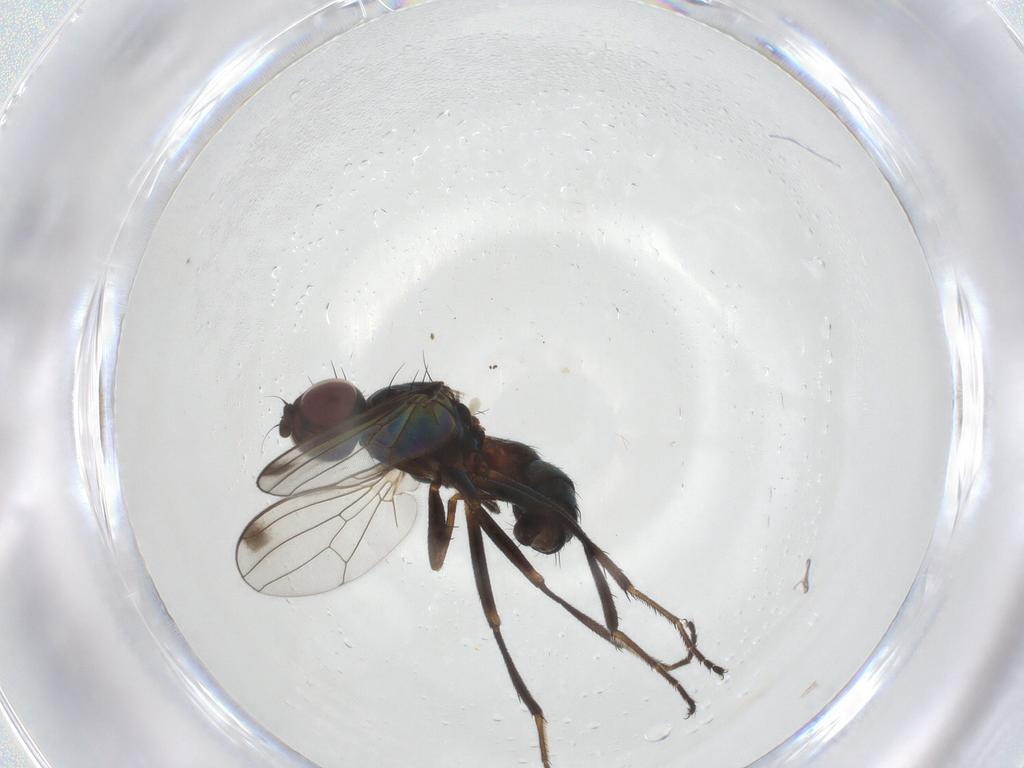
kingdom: Animalia
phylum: Arthropoda
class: Insecta
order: Diptera
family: Sepsidae
